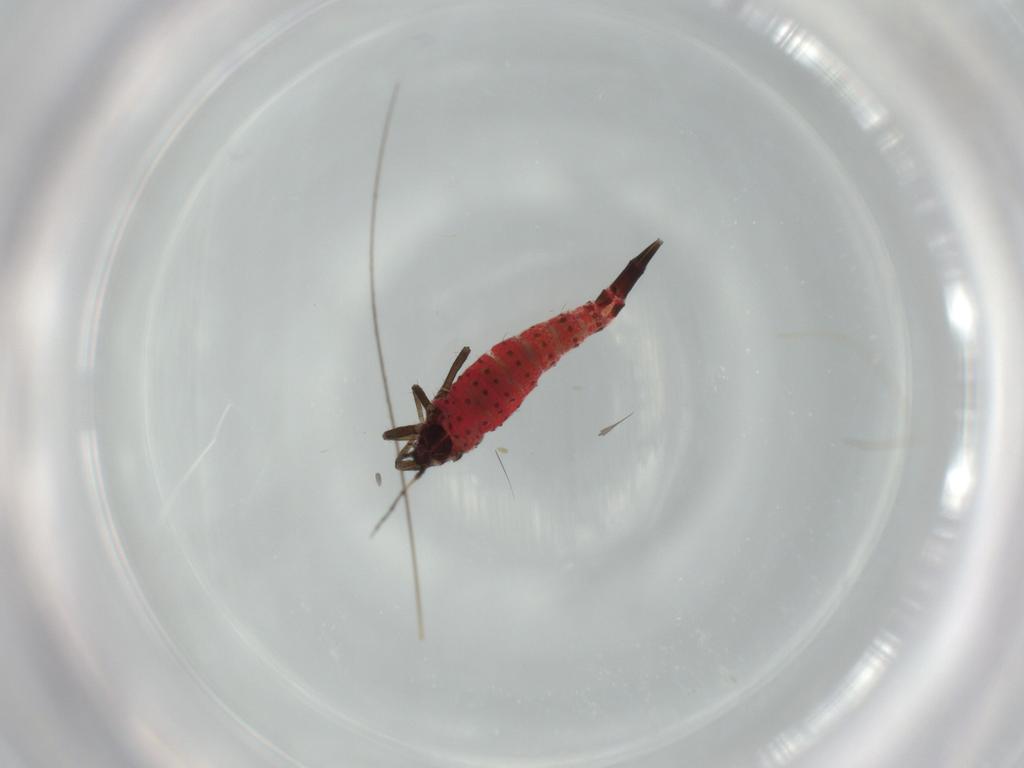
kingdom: Animalia
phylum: Arthropoda
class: Insecta
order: Thysanoptera
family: Phlaeothripidae
